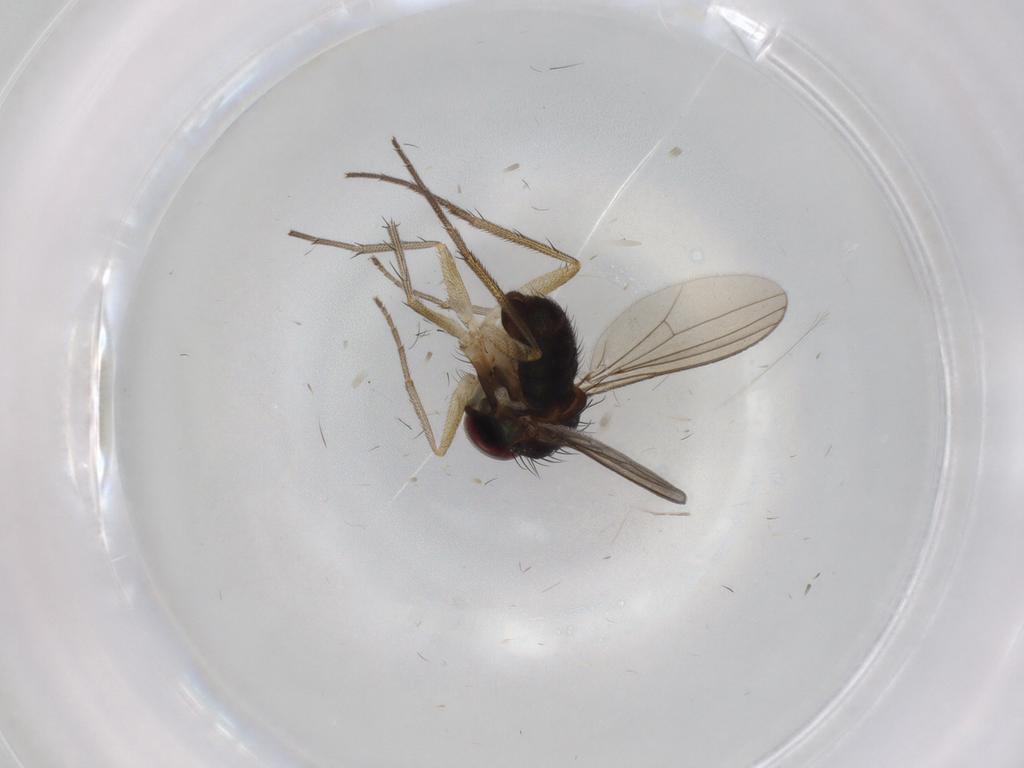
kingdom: Animalia
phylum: Arthropoda
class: Insecta
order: Diptera
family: Dolichopodidae
